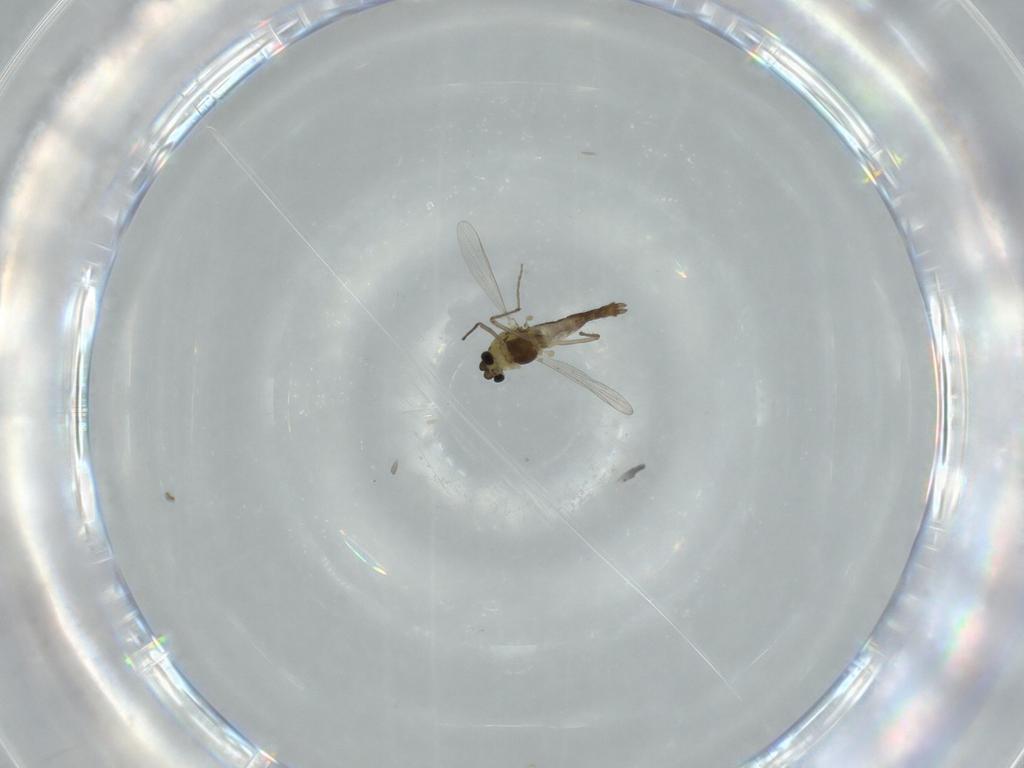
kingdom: Animalia
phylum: Arthropoda
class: Insecta
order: Diptera
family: Chironomidae
